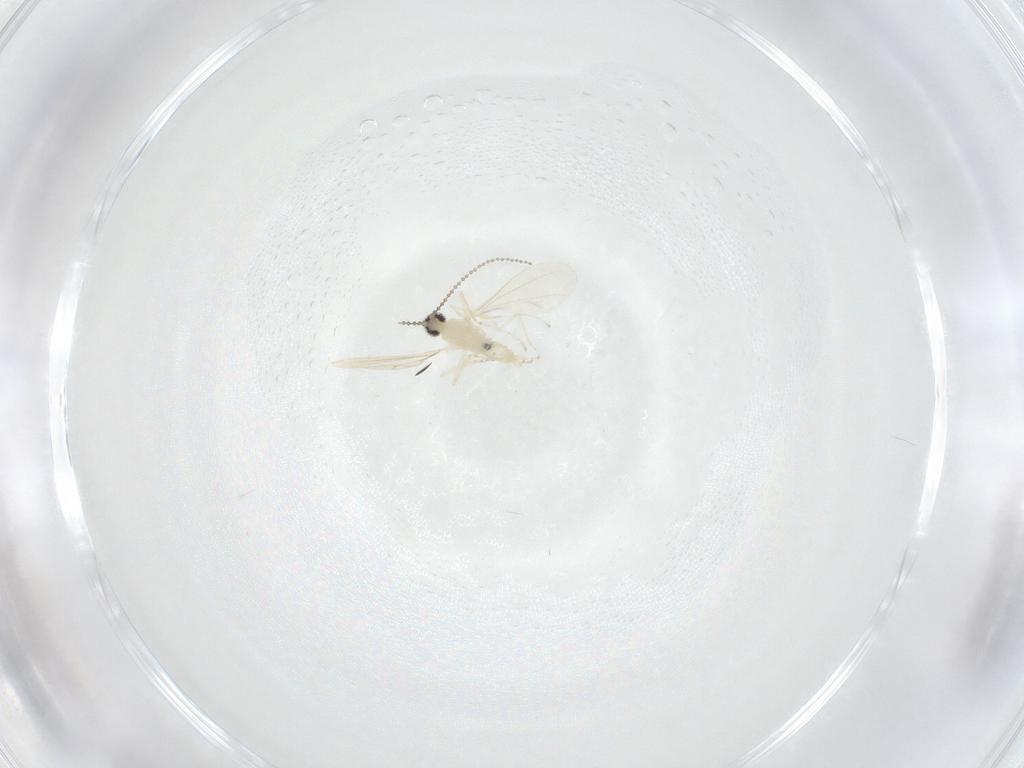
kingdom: Animalia
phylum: Arthropoda
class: Insecta
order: Diptera
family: Cecidomyiidae
